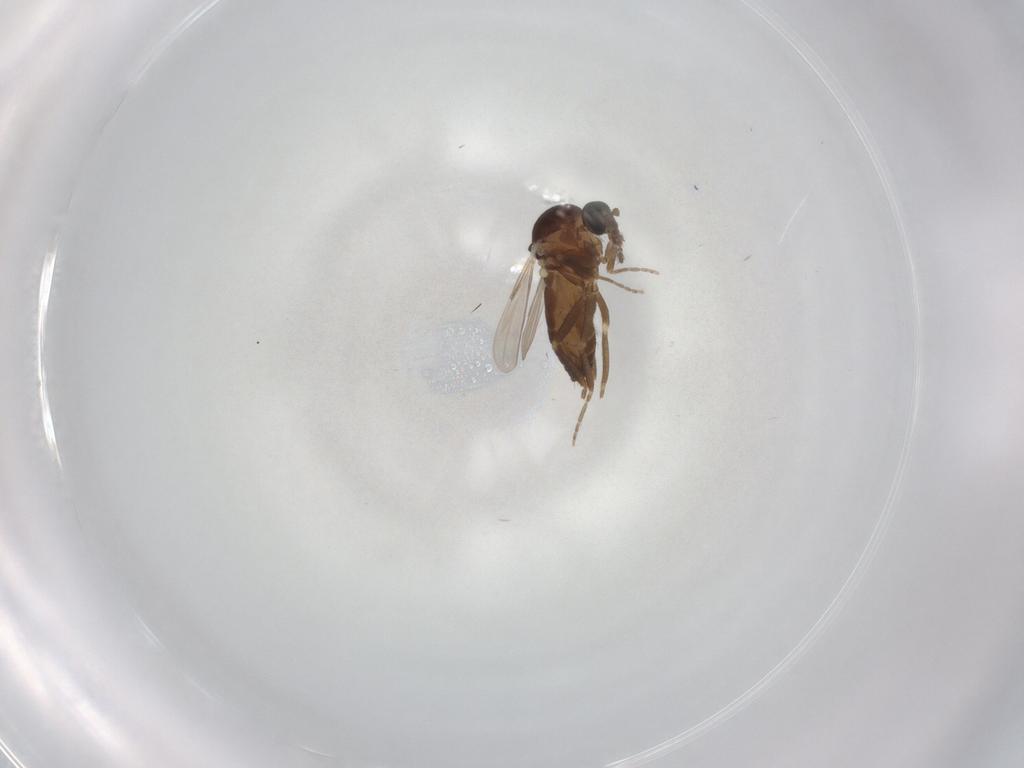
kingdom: Animalia
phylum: Arthropoda
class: Insecta
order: Diptera
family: Ceratopogonidae
